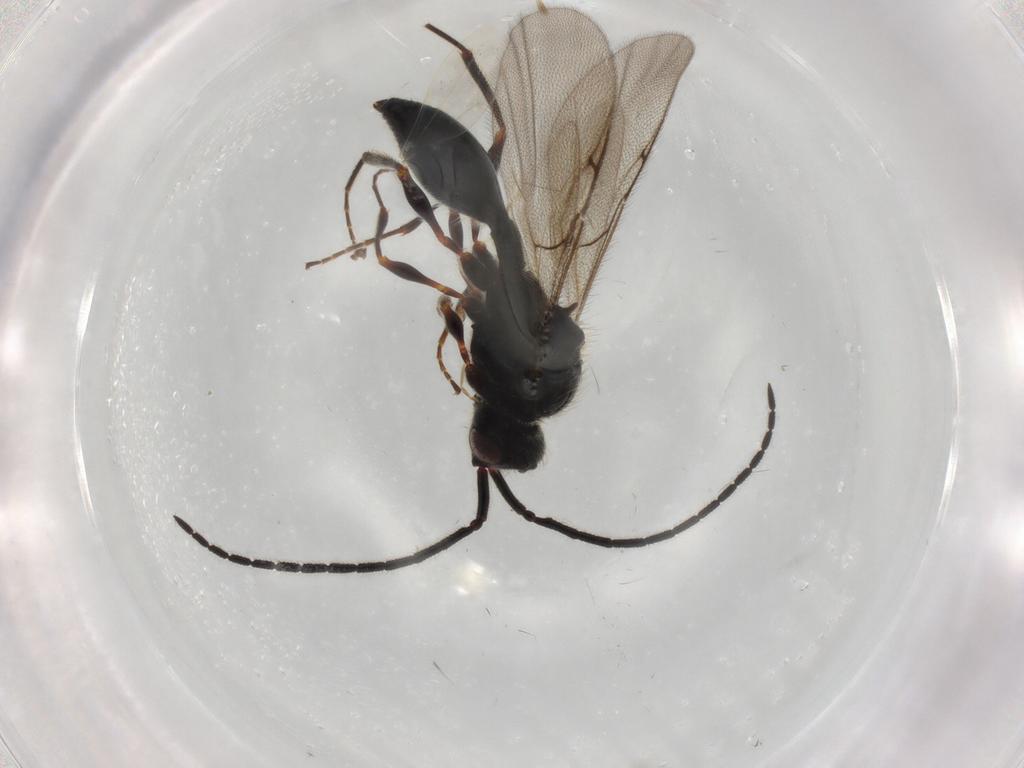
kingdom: Animalia
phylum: Arthropoda
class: Insecta
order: Hymenoptera
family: Diapriidae
